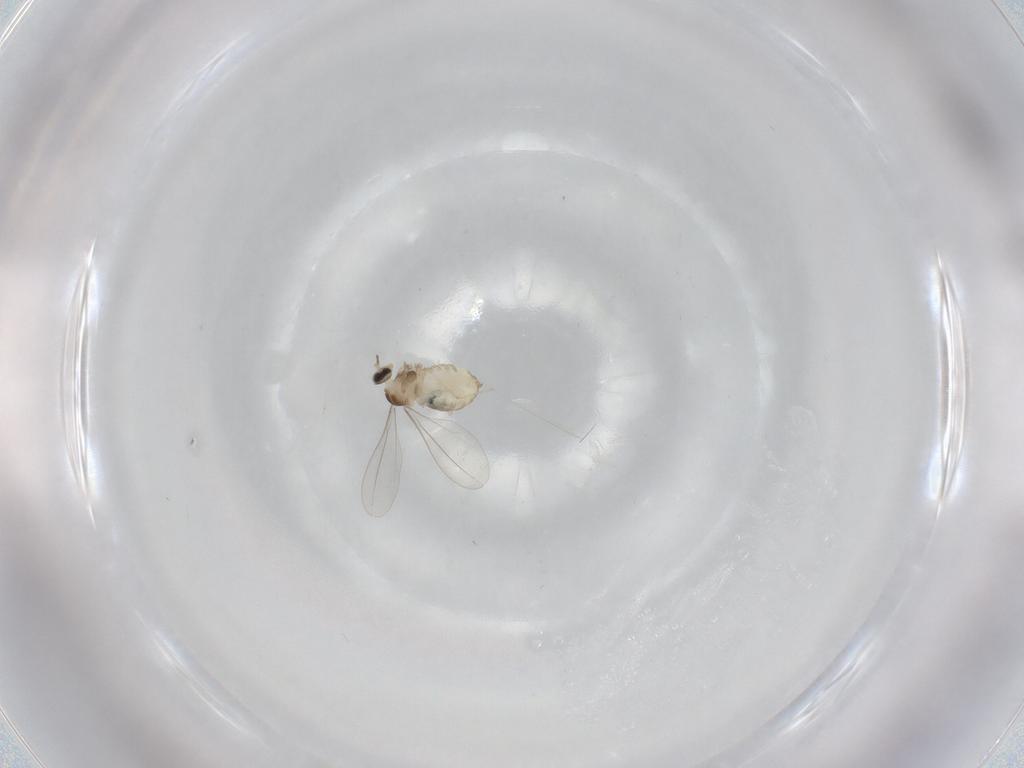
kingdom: Animalia
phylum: Arthropoda
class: Insecta
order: Diptera
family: Cecidomyiidae
